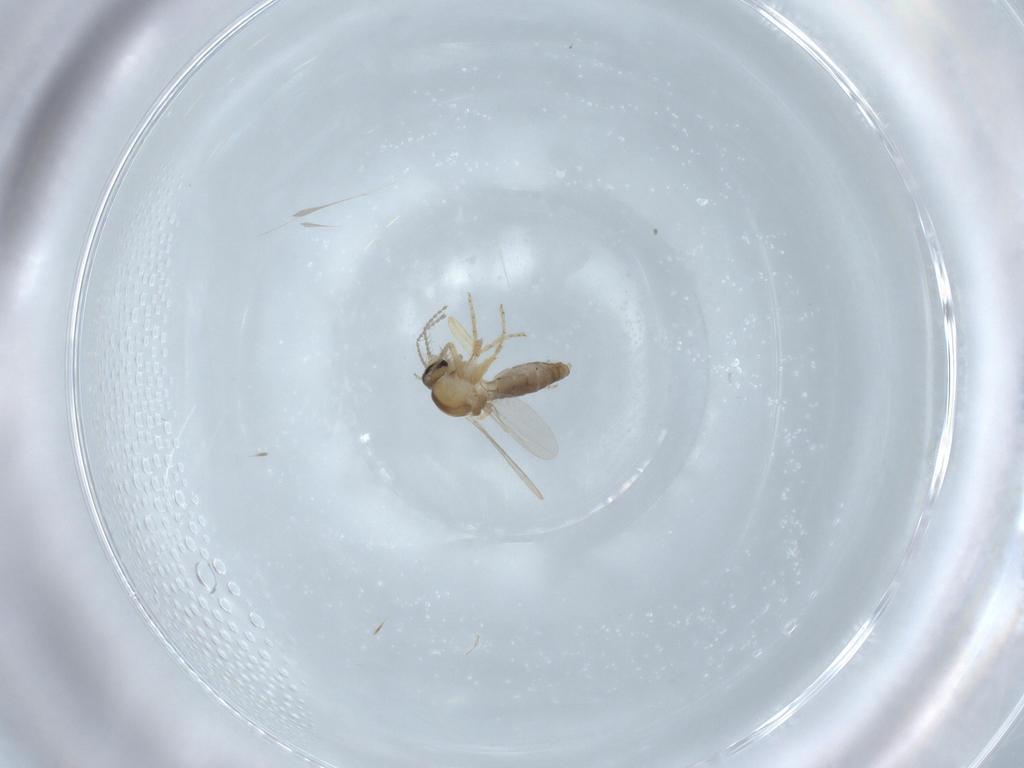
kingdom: Animalia
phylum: Arthropoda
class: Insecta
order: Diptera
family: Ceratopogonidae
